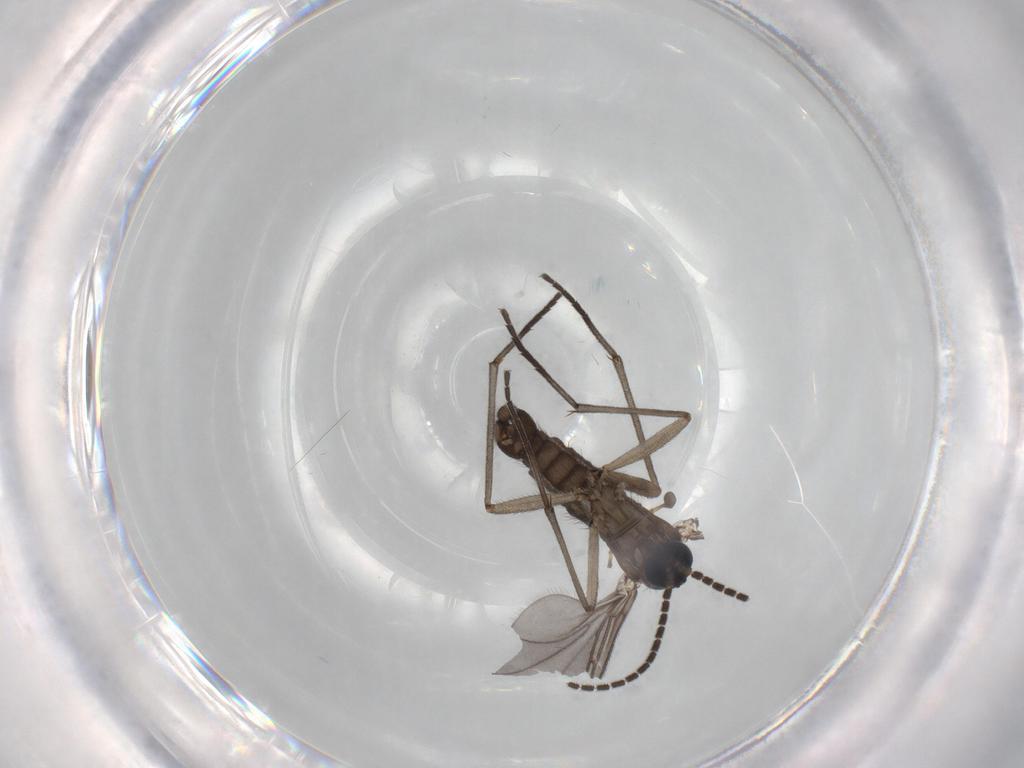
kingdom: Animalia
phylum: Arthropoda
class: Insecta
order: Diptera
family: Sciaridae
